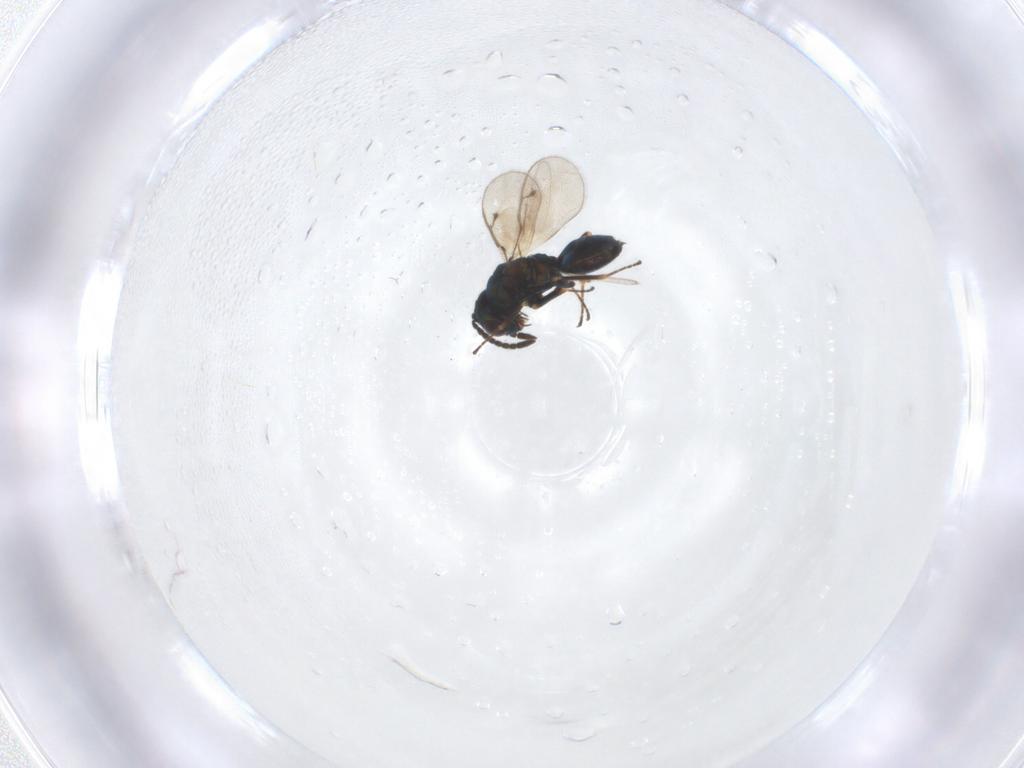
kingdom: Animalia
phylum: Arthropoda
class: Insecta
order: Hymenoptera
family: Pteromalidae
